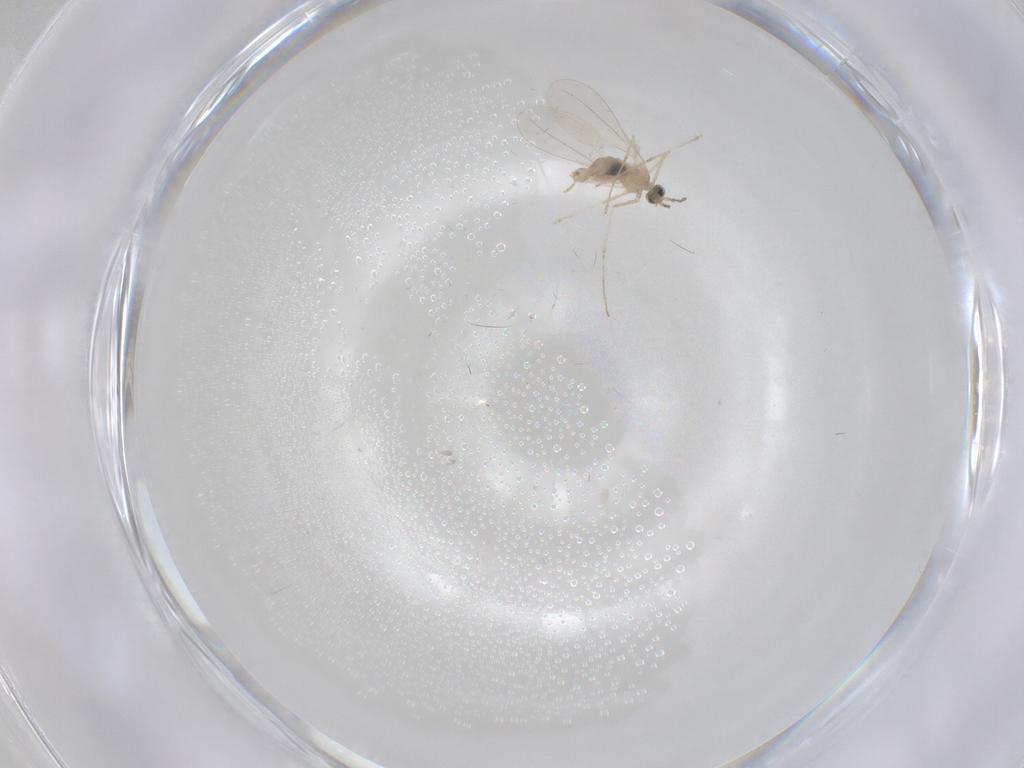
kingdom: Animalia
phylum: Arthropoda
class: Insecta
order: Diptera
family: Cecidomyiidae
